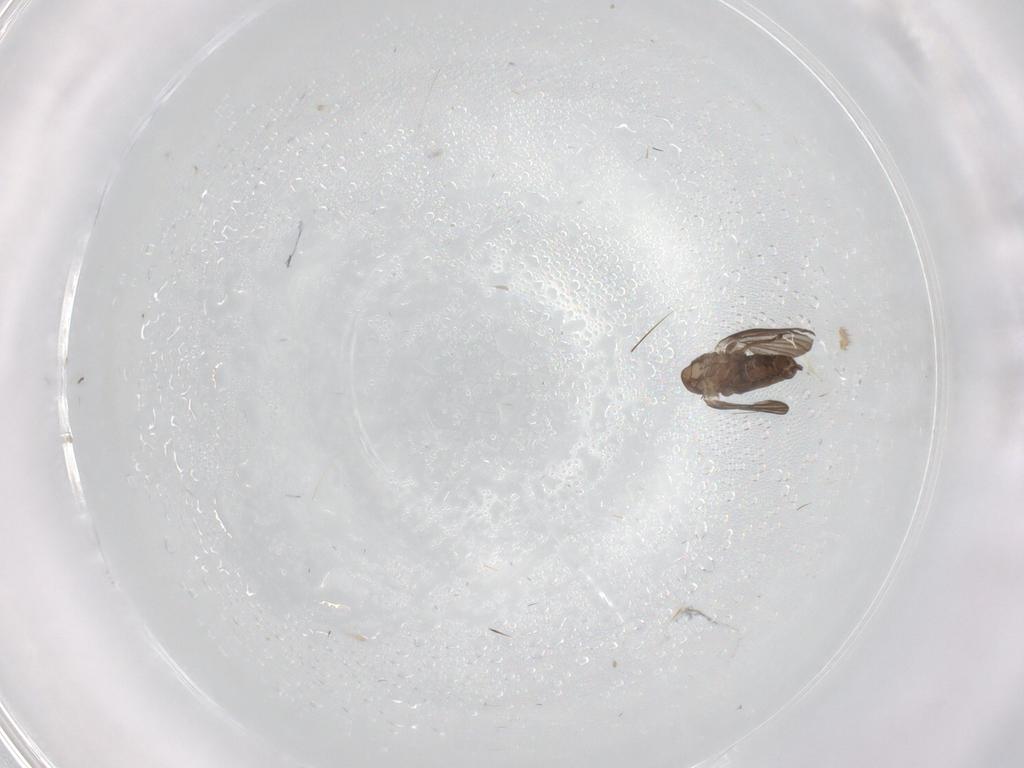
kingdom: Animalia
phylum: Arthropoda
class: Insecta
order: Diptera
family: Ceratopogonidae
